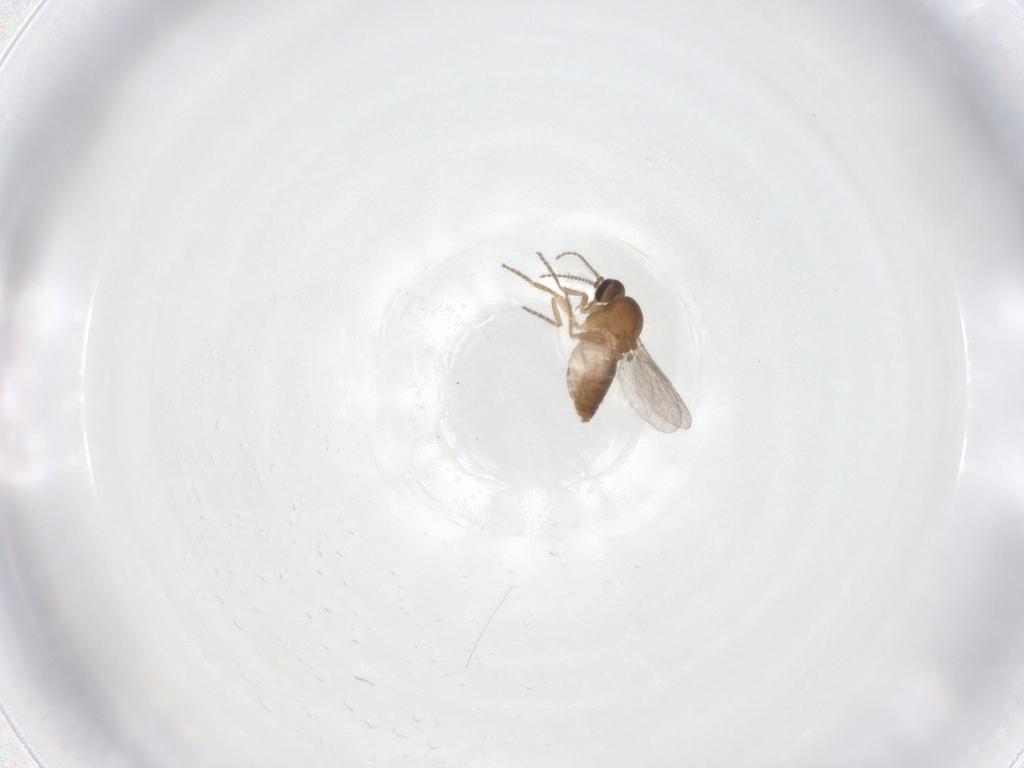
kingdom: Animalia
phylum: Arthropoda
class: Insecta
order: Diptera
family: Ceratopogonidae
